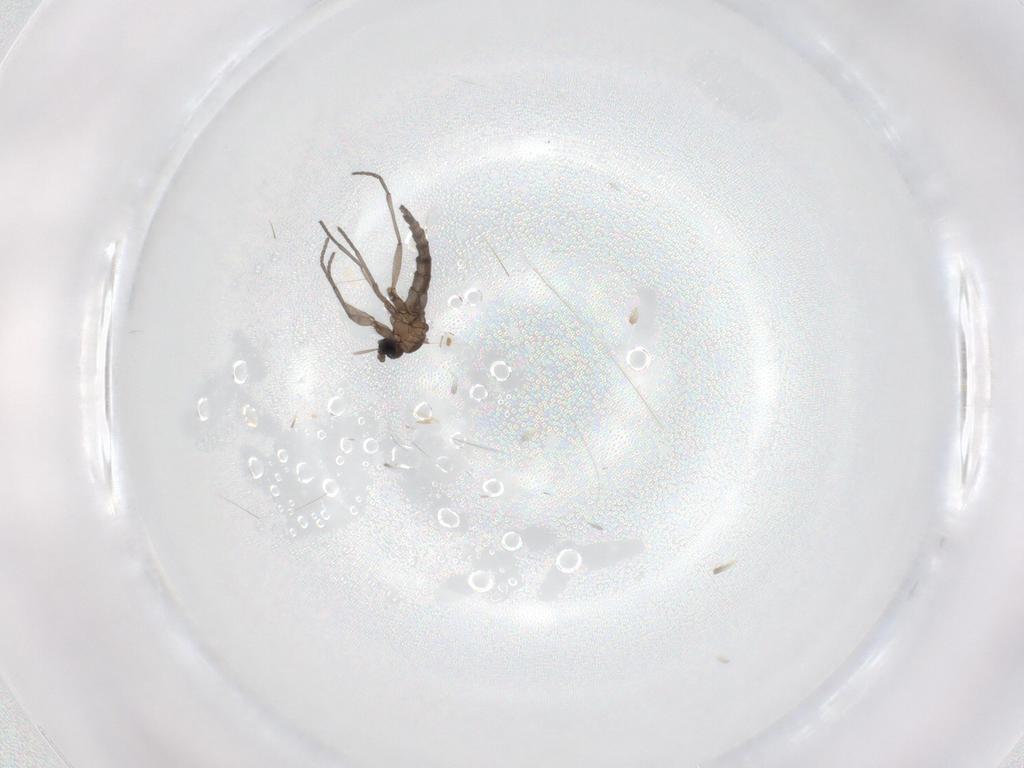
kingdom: Animalia
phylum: Arthropoda
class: Insecta
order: Diptera
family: Sciaridae
